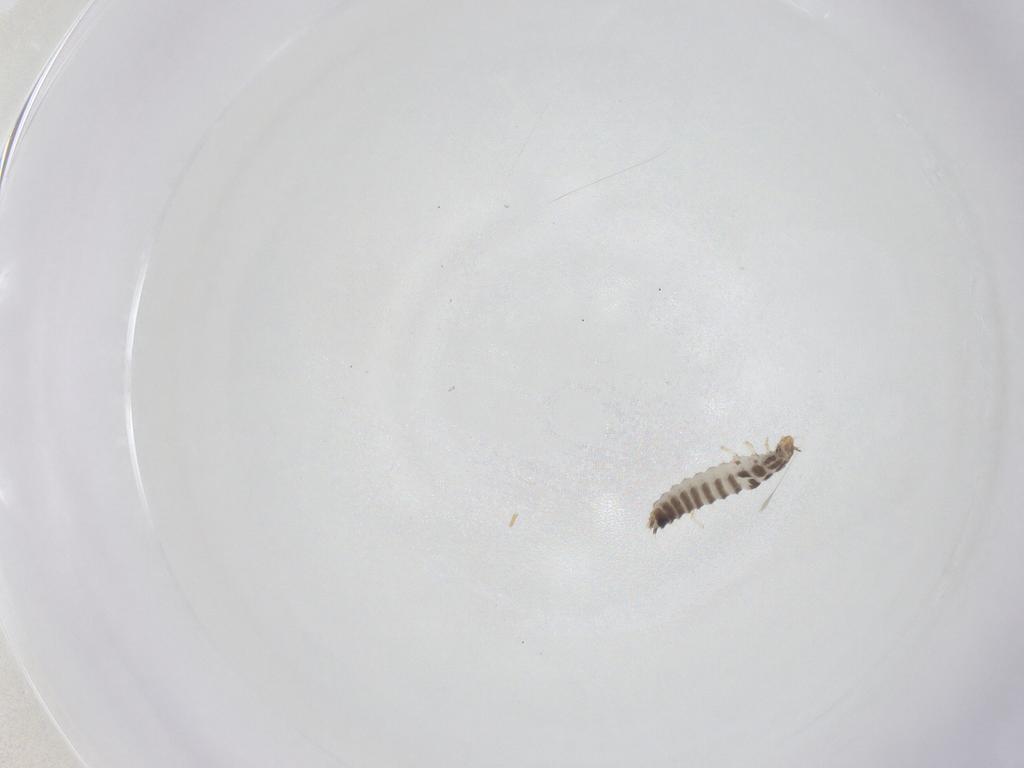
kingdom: Animalia
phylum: Arthropoda
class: Insecta
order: Coleoptera
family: Staphylinidae
